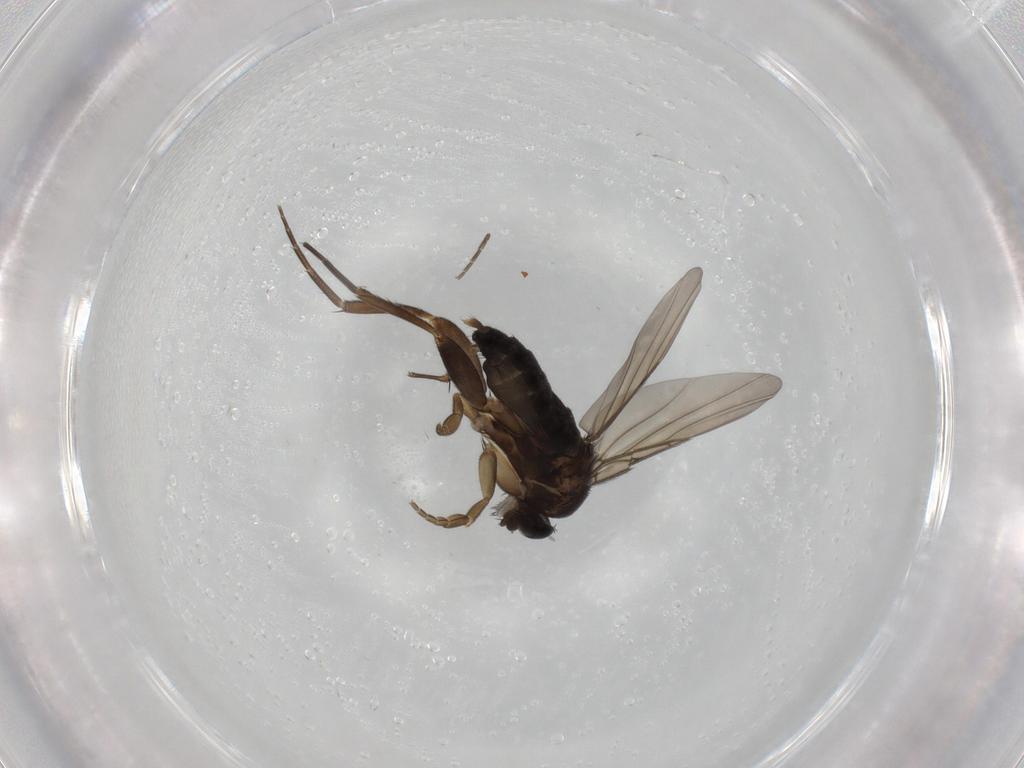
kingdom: Animalia
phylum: Arthropoda
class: Insecta
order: Diptera
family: Phoridae
